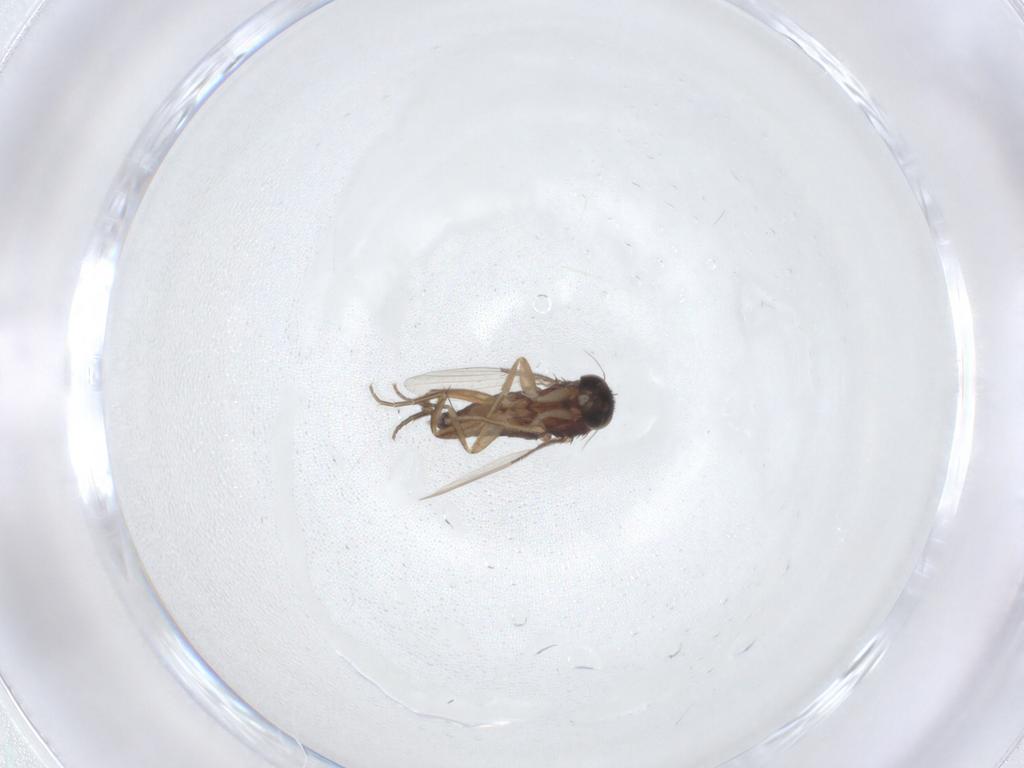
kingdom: Animalia
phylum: Arthropoda
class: Insecta
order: Diptera
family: Phoridae
